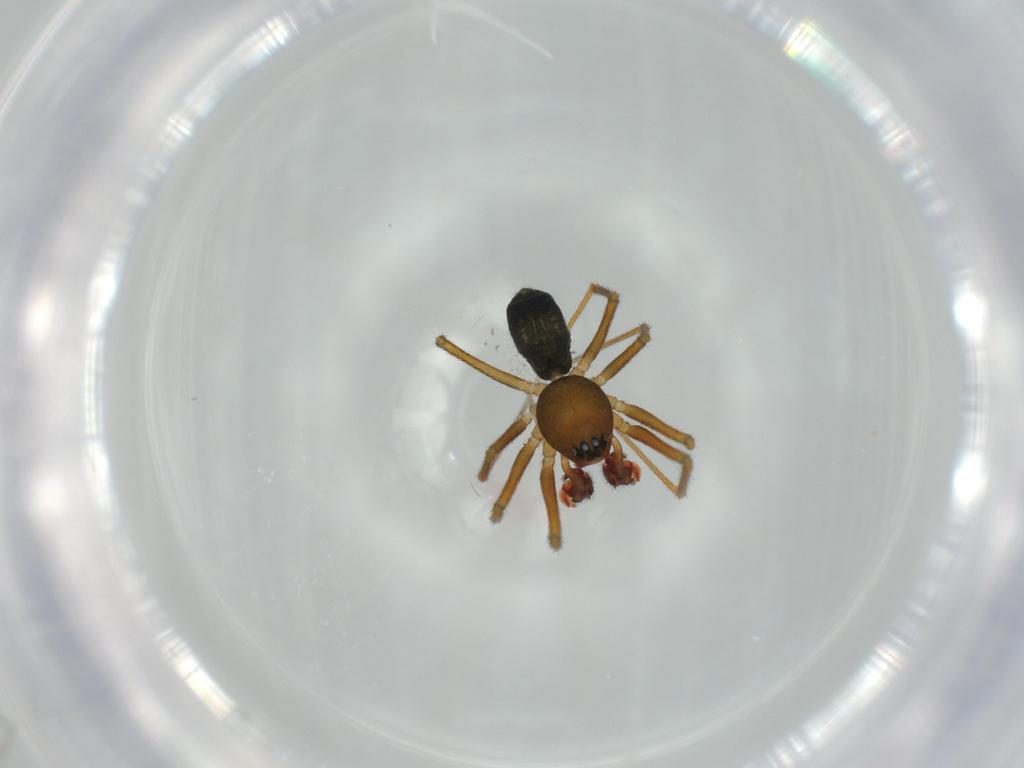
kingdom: Animalia
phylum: Arthropoda
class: Arachnida
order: Araneae
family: Linyphiidae
